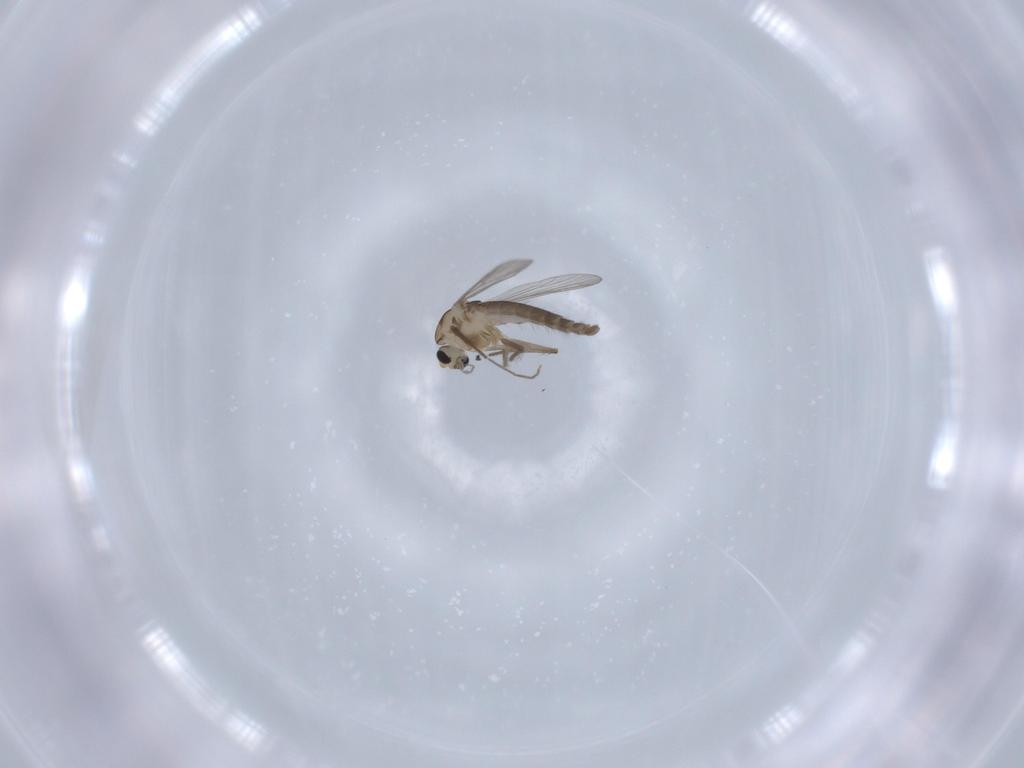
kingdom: Animalia
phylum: Arthropoda
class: Insecta
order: Diptera
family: Chironomidae
